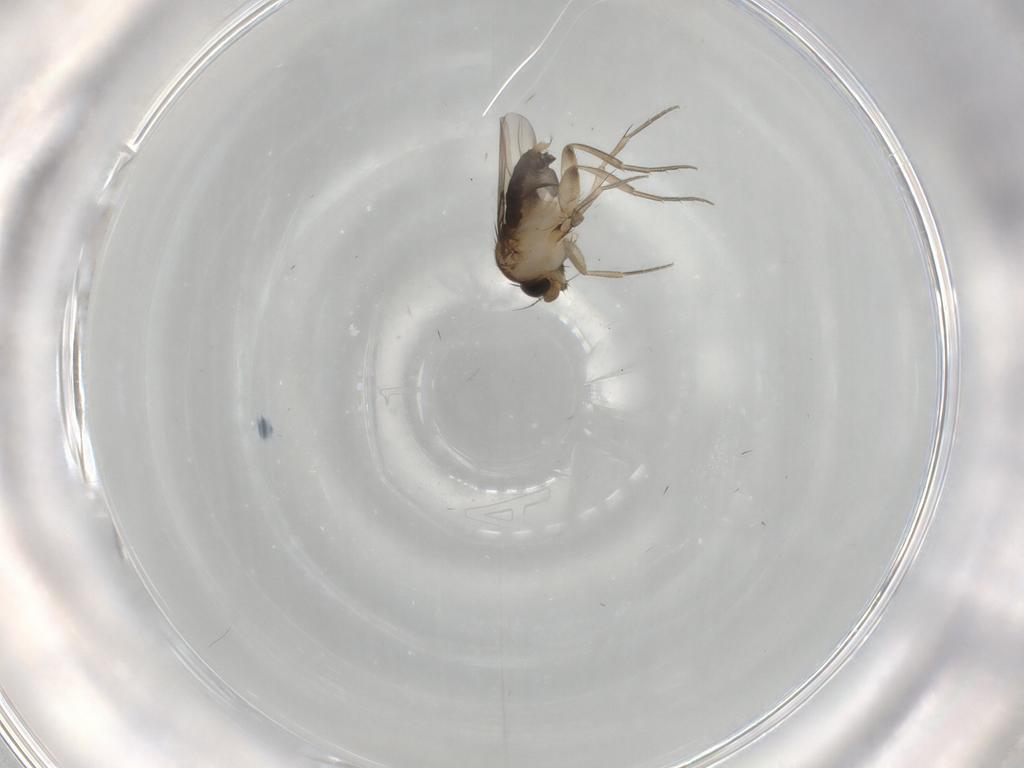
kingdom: Animalia
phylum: Arthropoda
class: Insecta
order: Diptera
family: Phoridae
